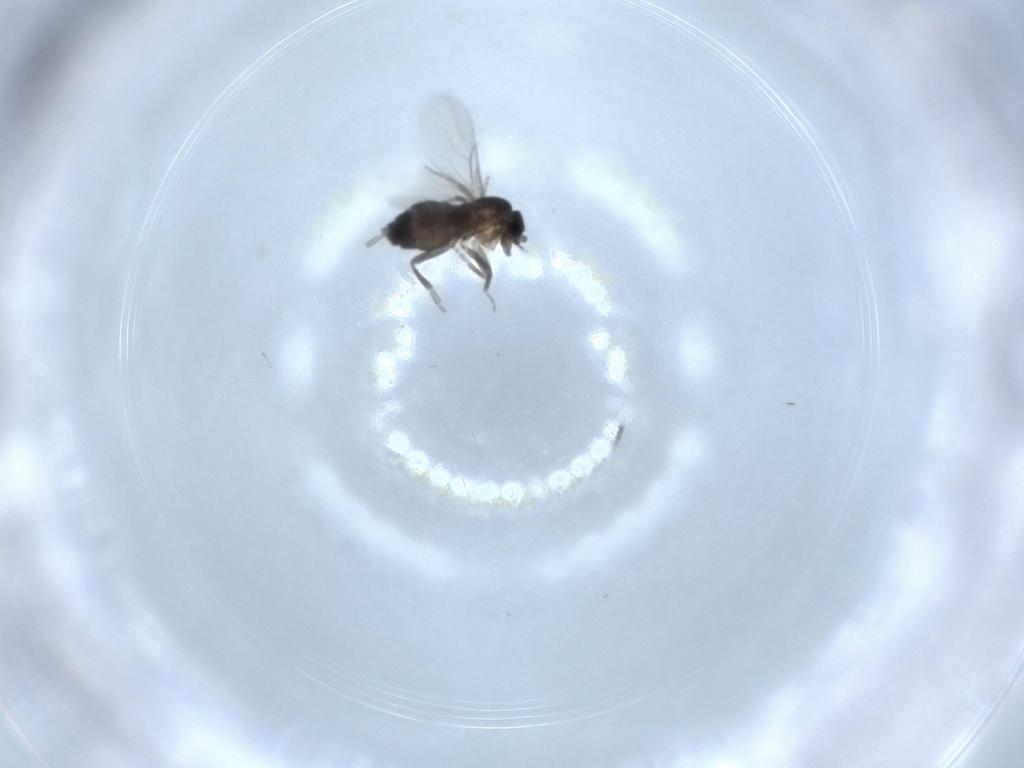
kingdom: Animalia
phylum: Arthropoda
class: Insecta
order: Diptera
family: Phoridae
